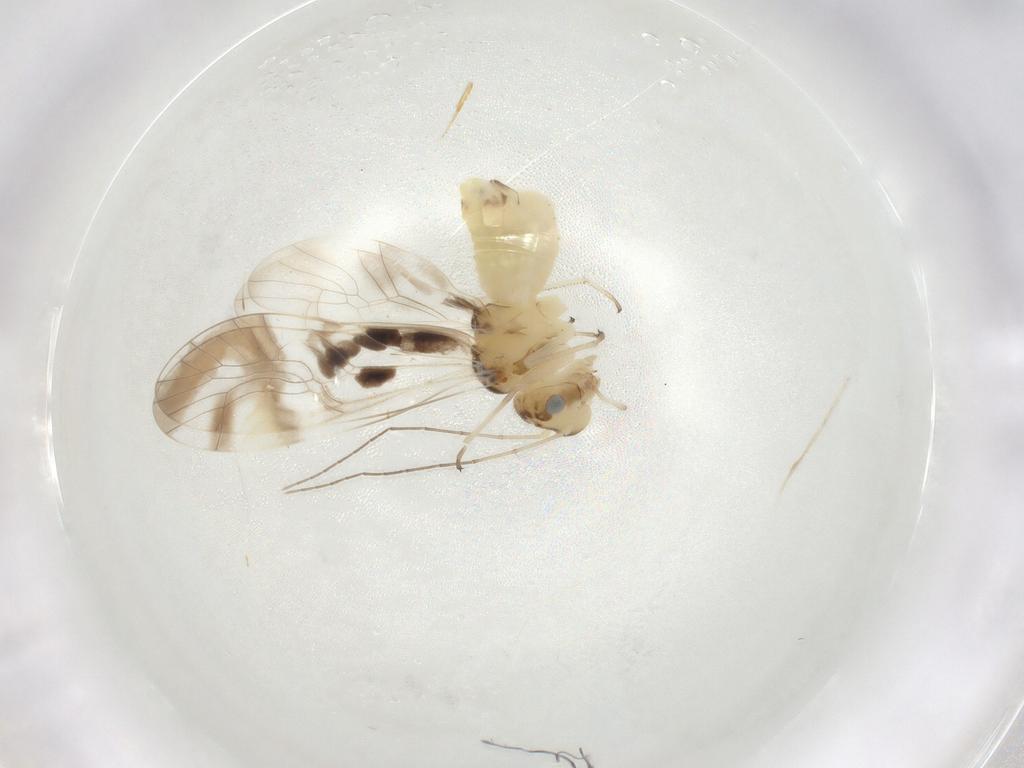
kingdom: Animalia
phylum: Arthropoda
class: Insecta
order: Psocodea
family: Stenopsocidae
